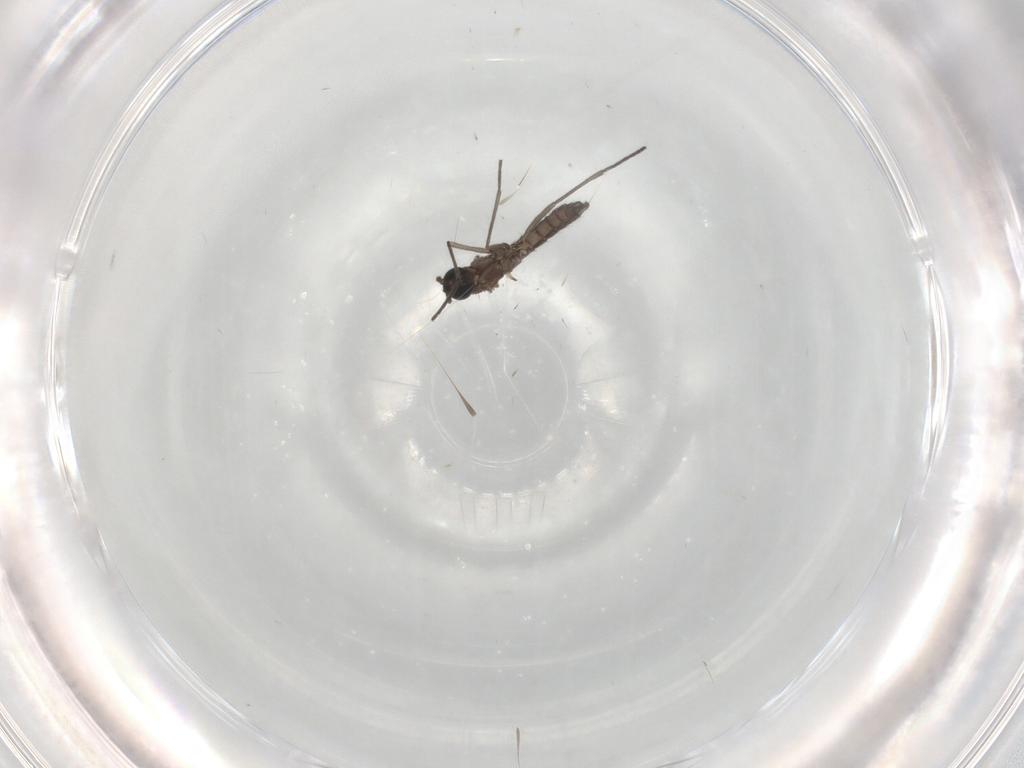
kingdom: Animalia
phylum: Arthropoda
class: Insecta
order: Diptera
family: Sciaridae
